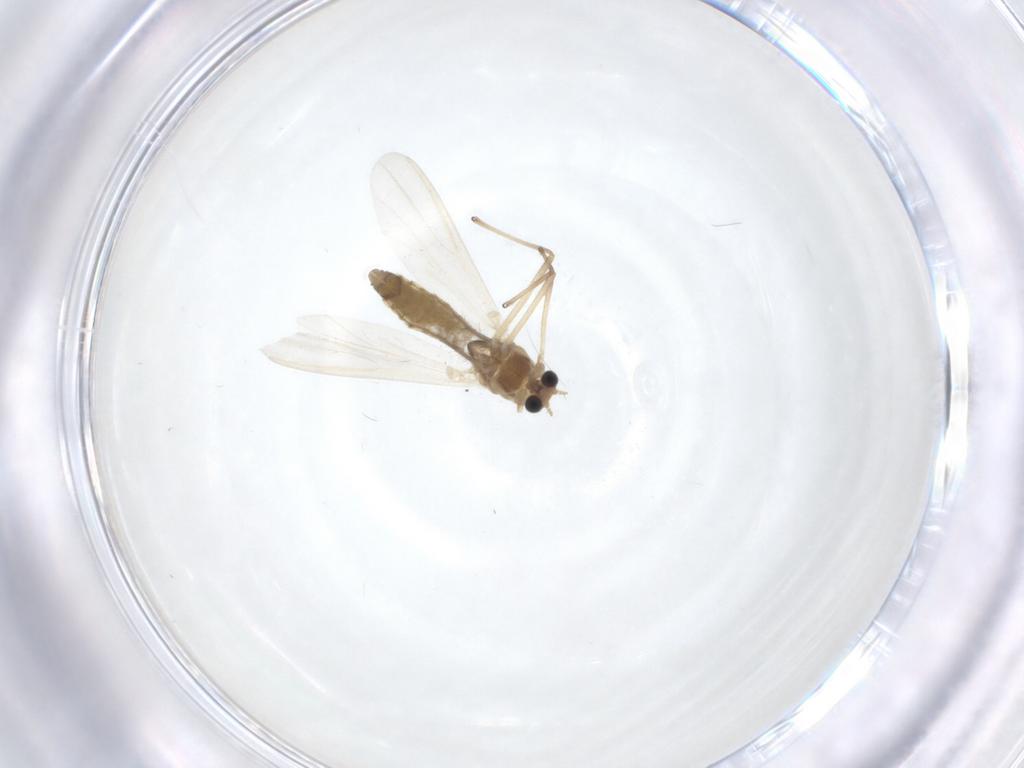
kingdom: Animalia
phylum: Arthropoda
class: Insecta
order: Diptera
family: Chironomidae
